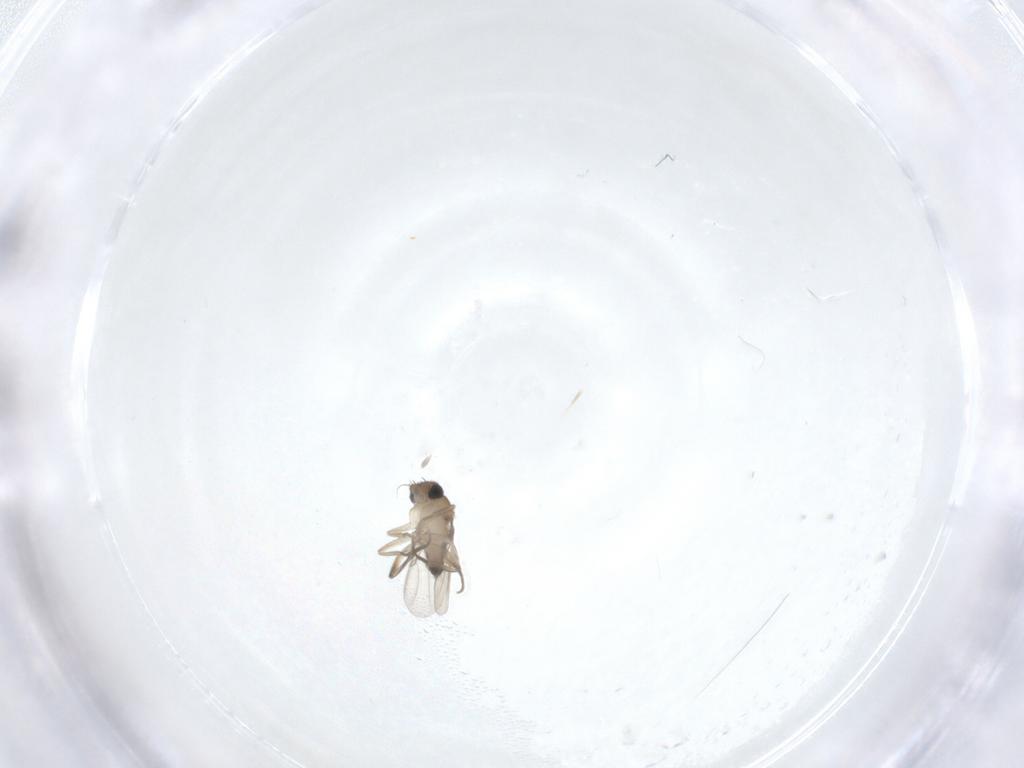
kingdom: Animalia
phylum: Arthropoda
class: Insecta
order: Diptera
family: Phoridae
